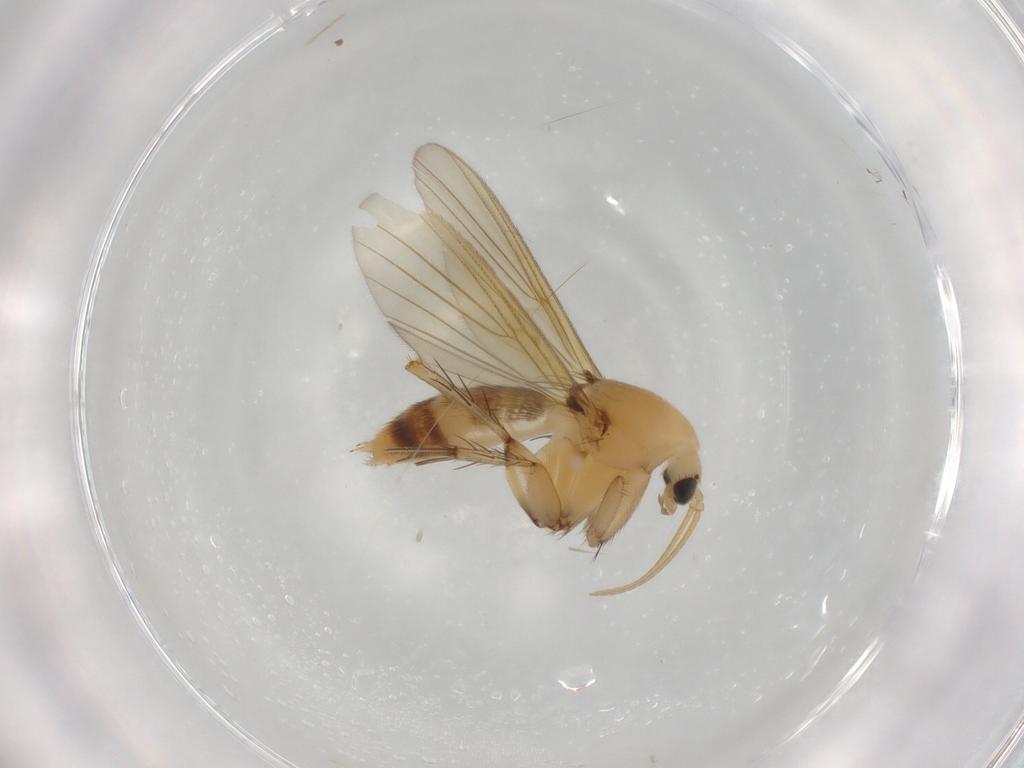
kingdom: Animalia
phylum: Arthropoda
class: Insecta
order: Diptera
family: Mycetophilidae
